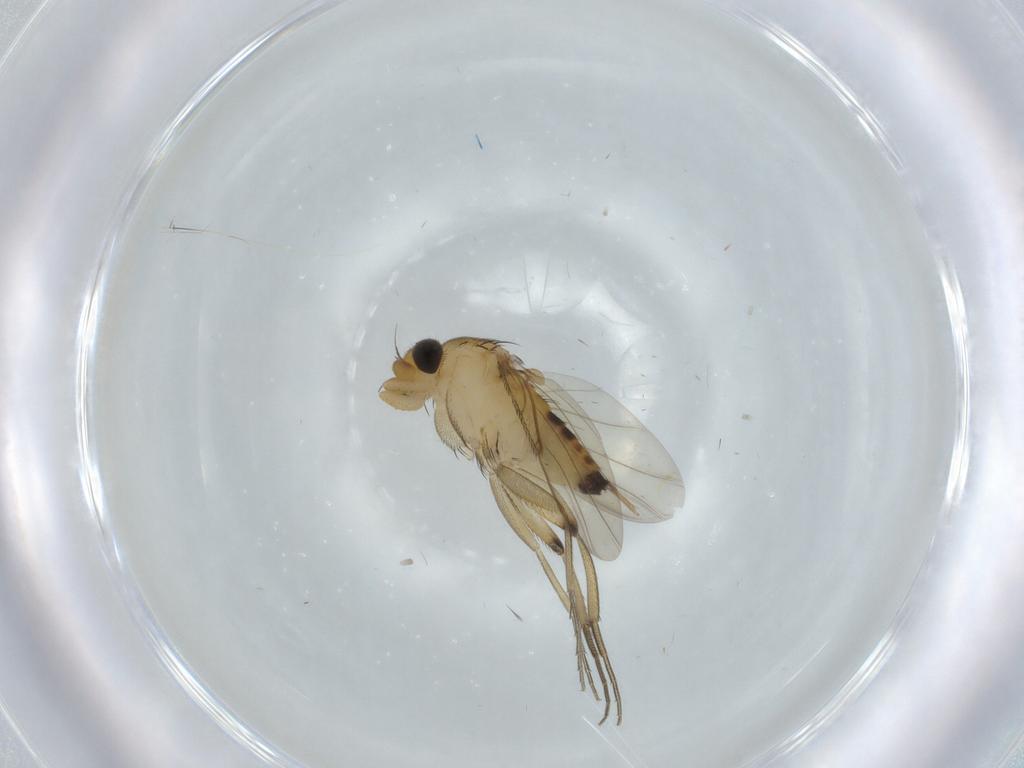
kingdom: Animalia
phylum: Arthropoda
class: Insecta
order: Diptera
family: Phoridae
